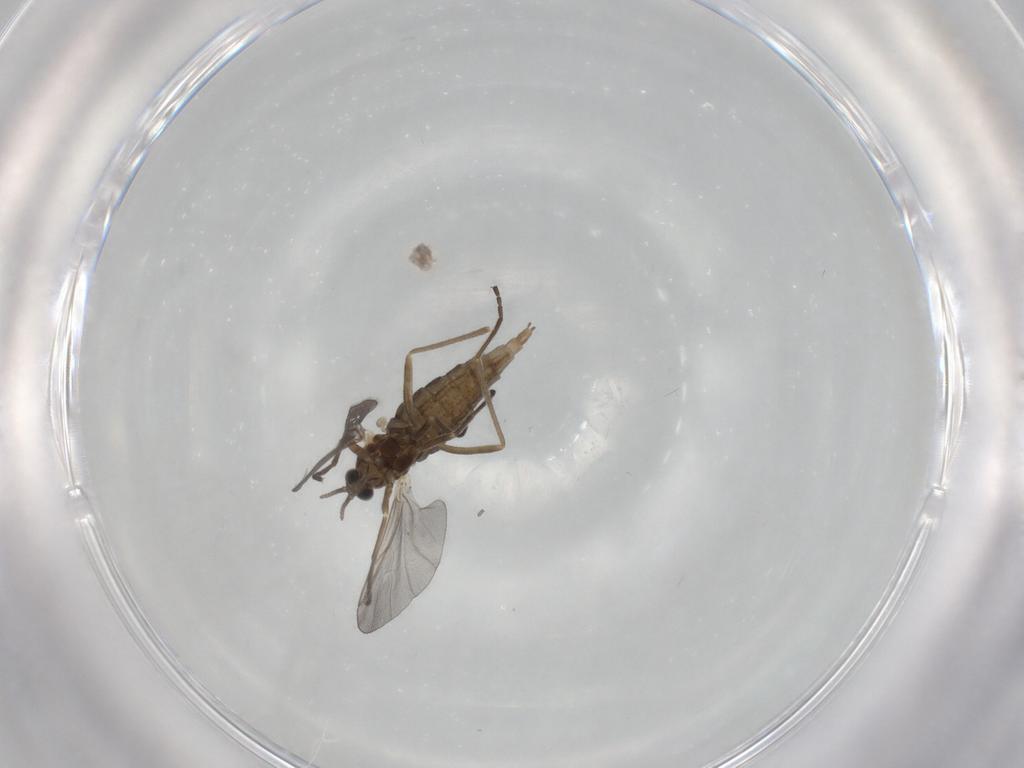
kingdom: Animalia
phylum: Arthropoda
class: Insecta
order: Diptera
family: Cecidomyiidae
